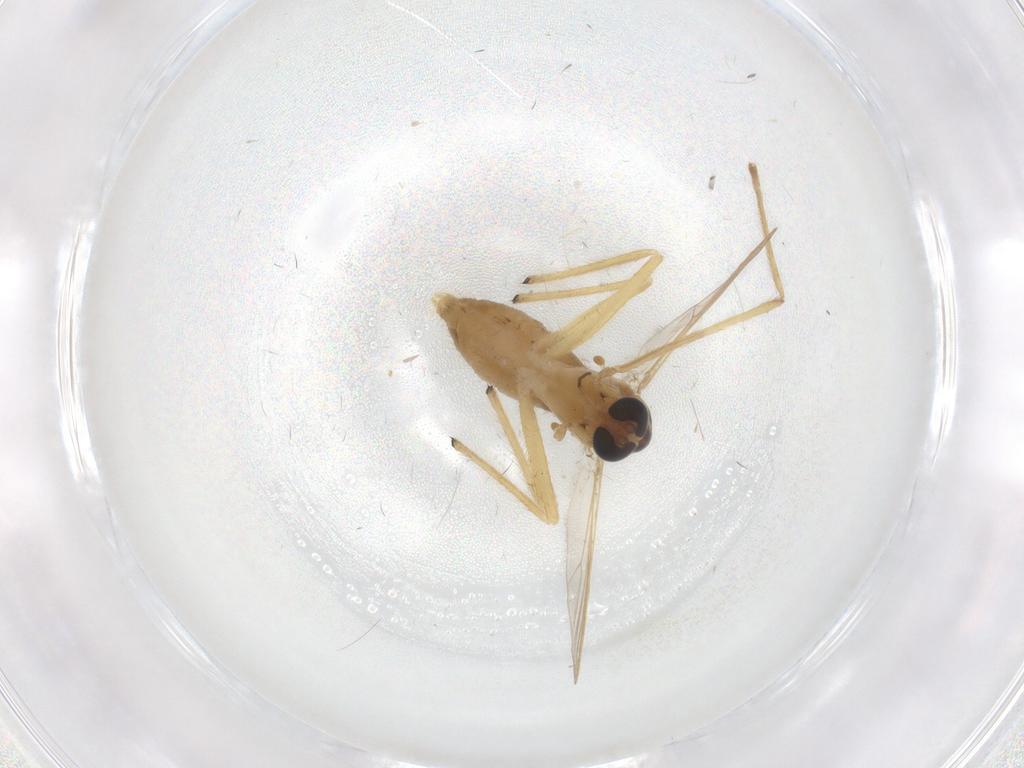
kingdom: Animalia
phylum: Arthropoda
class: Insecta
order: Diptera
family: Chironomidae
